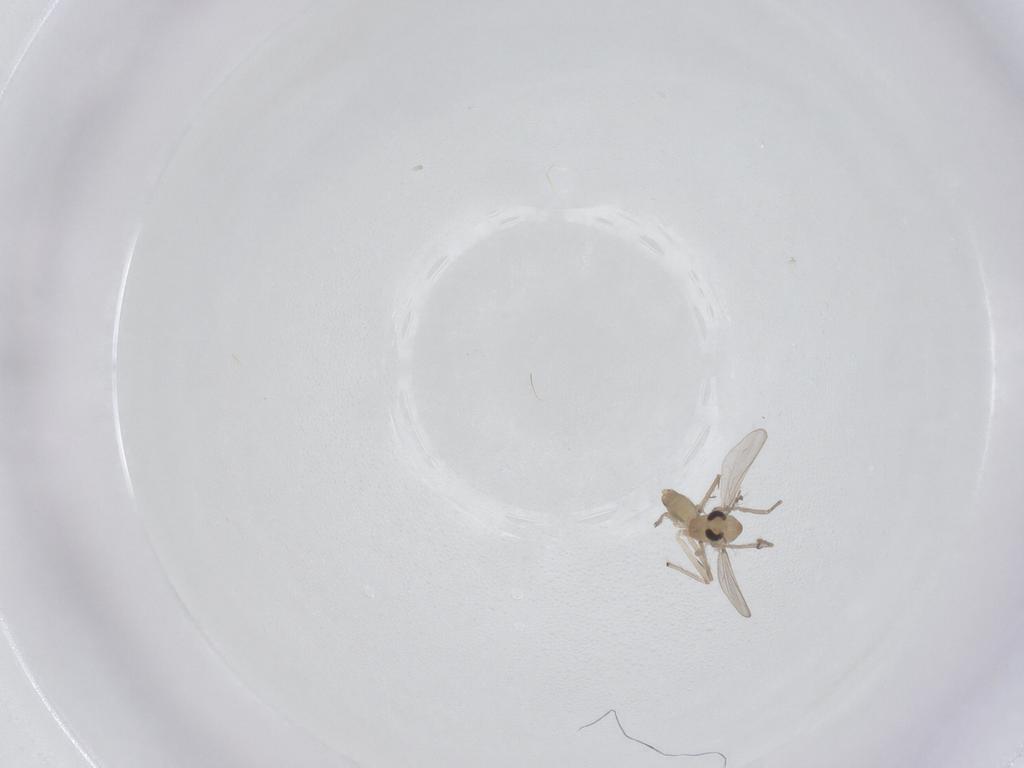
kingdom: Animalia
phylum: Arthropoda
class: Insecta
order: Diptera
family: Chironomidae
